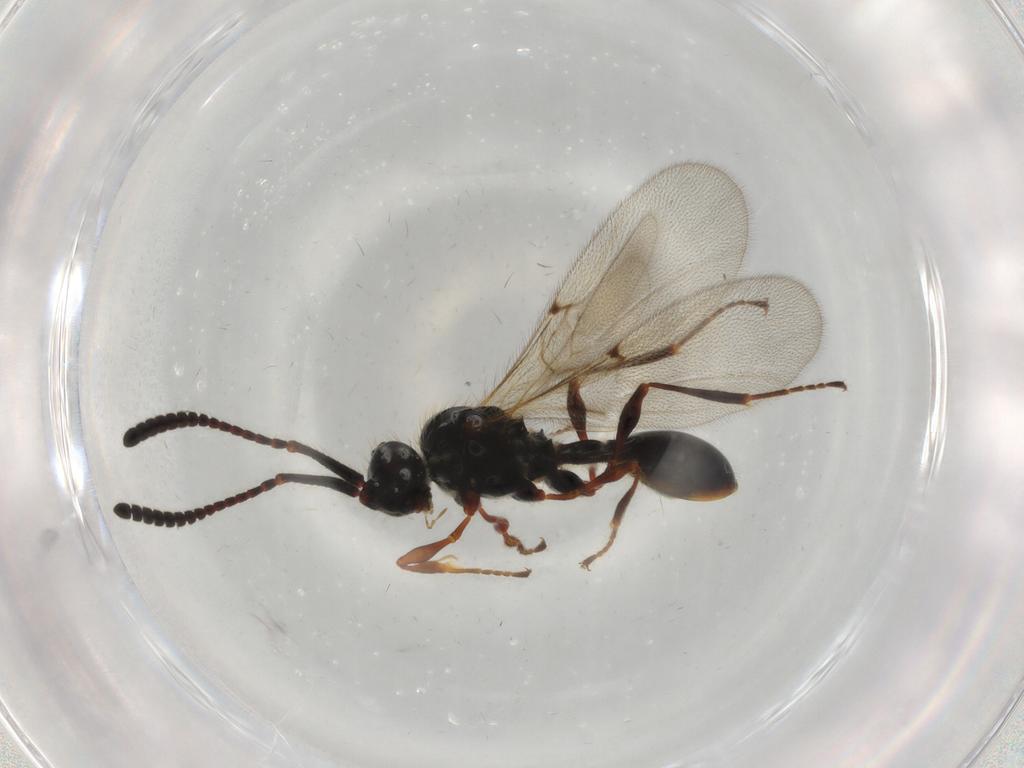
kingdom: Animalia
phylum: Arthropoda
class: Insecta
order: Hymenoptera
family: Diapriidae
